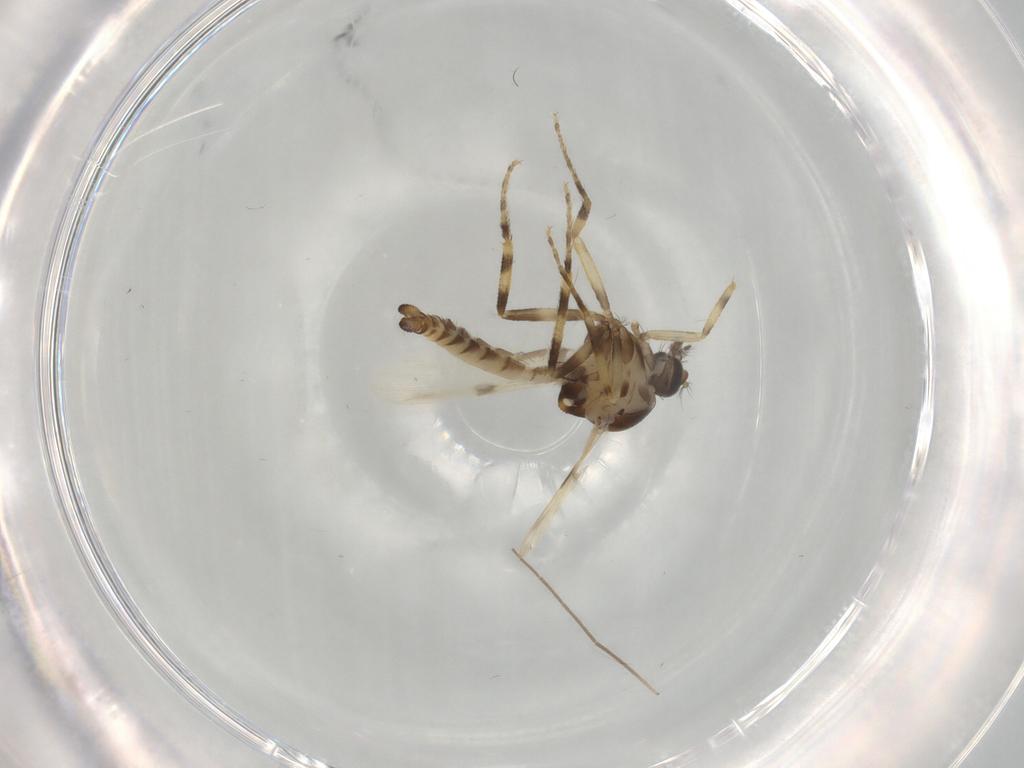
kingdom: Animalia
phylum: Arthropoda
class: Insecta
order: Diptera
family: Ceratopogonidae
